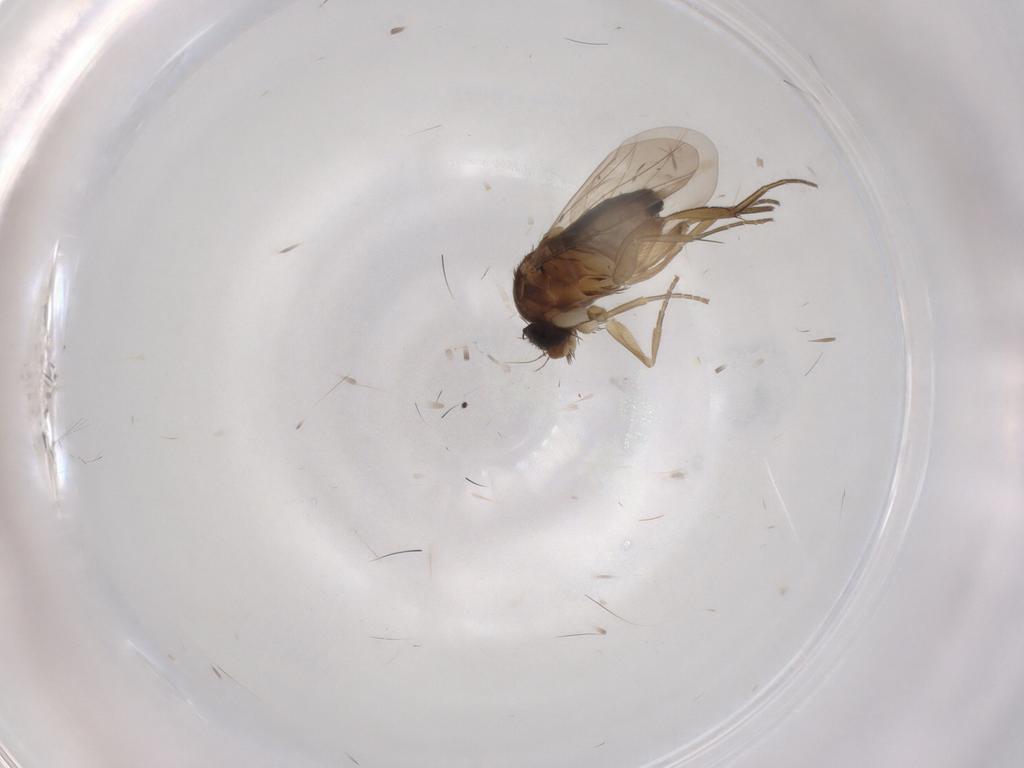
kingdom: Animalia
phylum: Arthropoda
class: Insecta
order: Diptera
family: Phoridae
